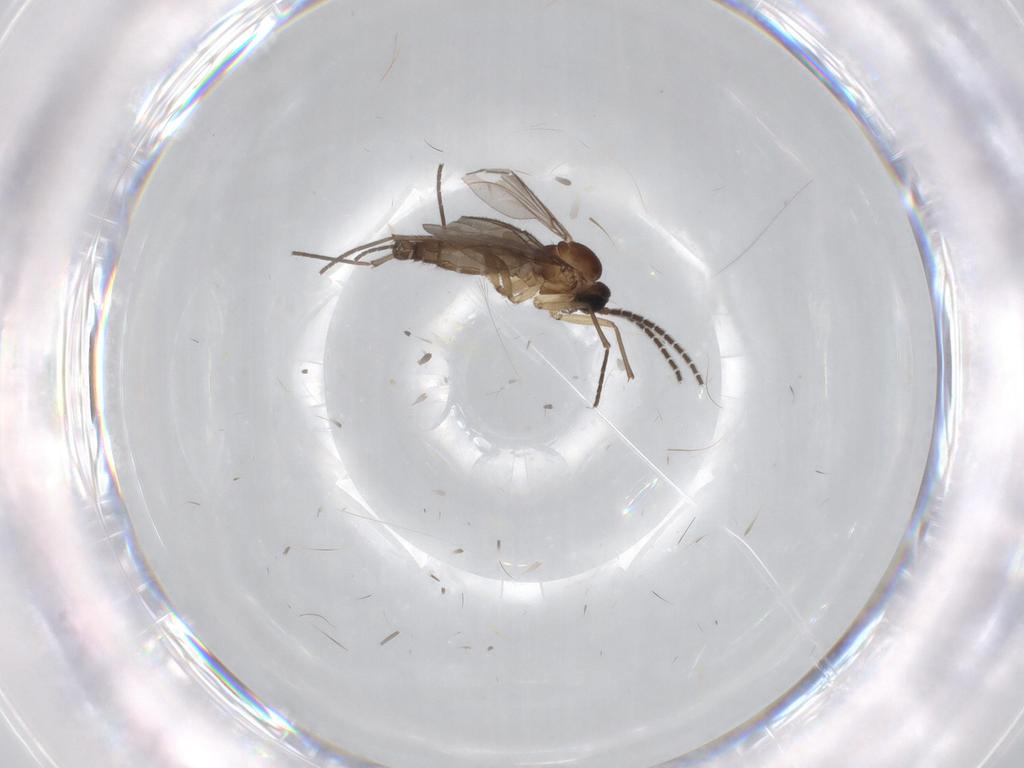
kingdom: Animalia
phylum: Arthropoda
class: Insecta
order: Diptera
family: Sciaridae
